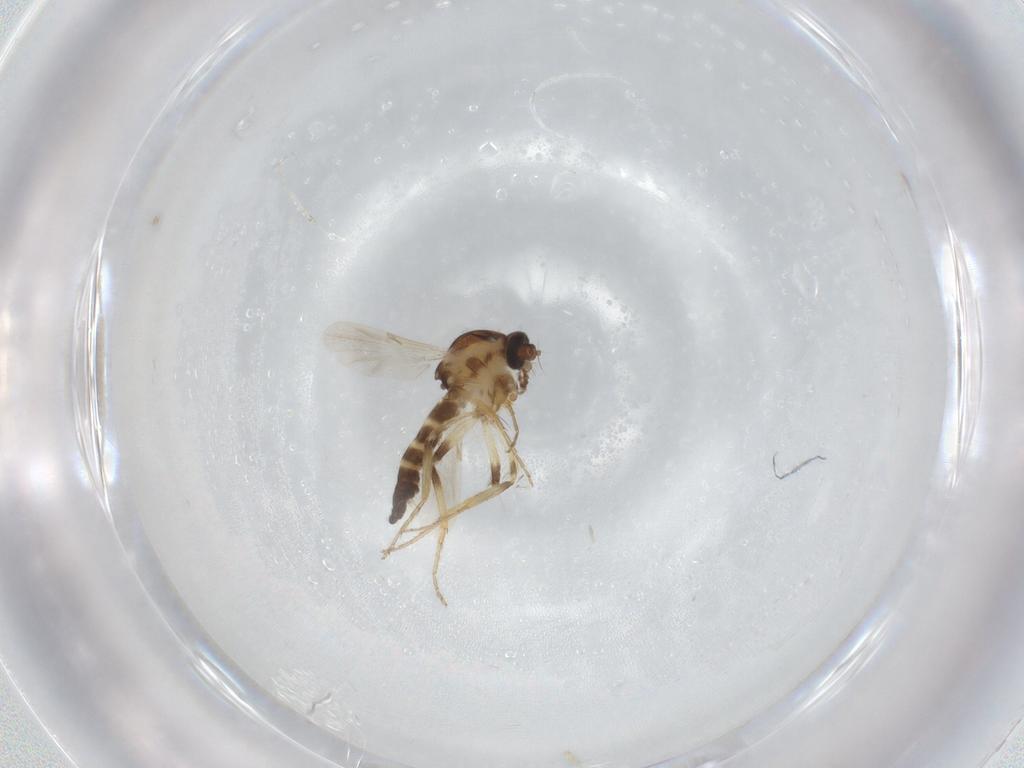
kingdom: Animalia
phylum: Arthropoda
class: Insecta
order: Diptera
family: Ceratopogonidae
